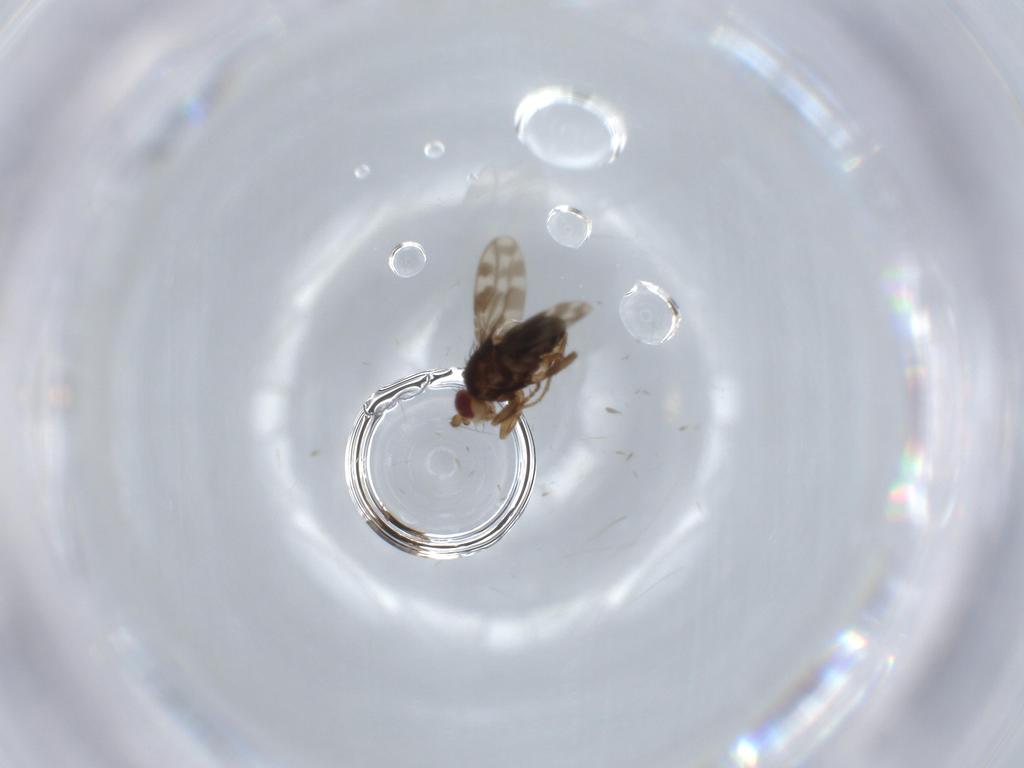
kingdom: Animalia
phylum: Arthropoda
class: Insecta
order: Diptera
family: Sphaeroceridae
